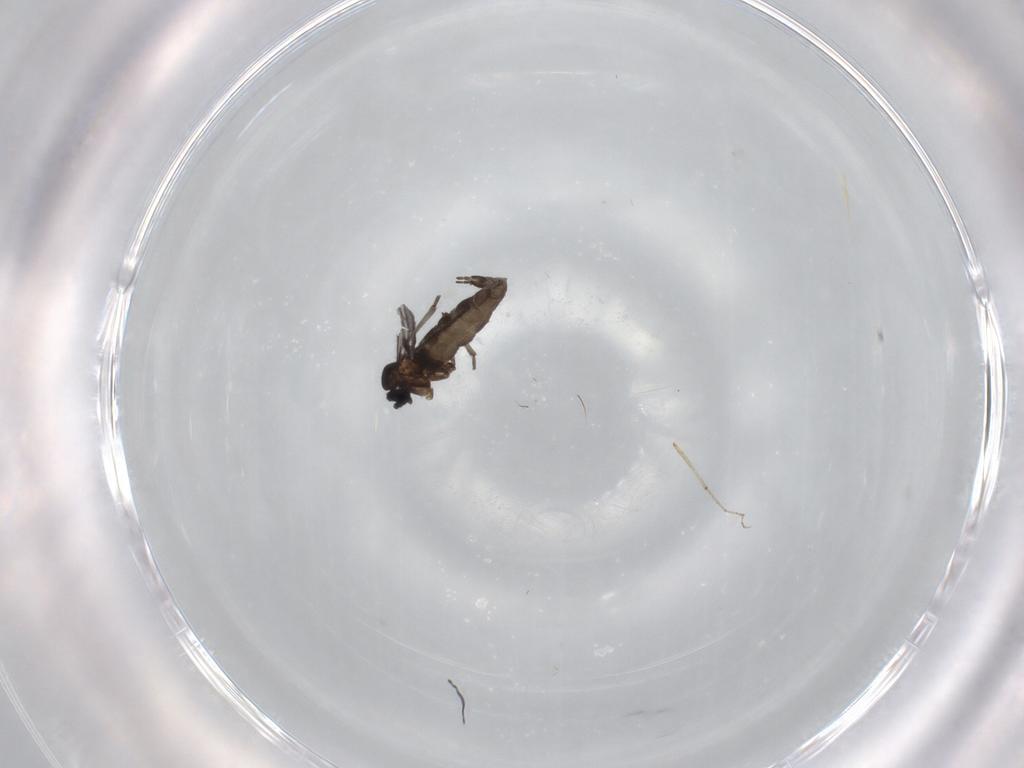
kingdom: Animalia
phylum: Arthropoda
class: Insecta
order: Diptera
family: Limoniidae
